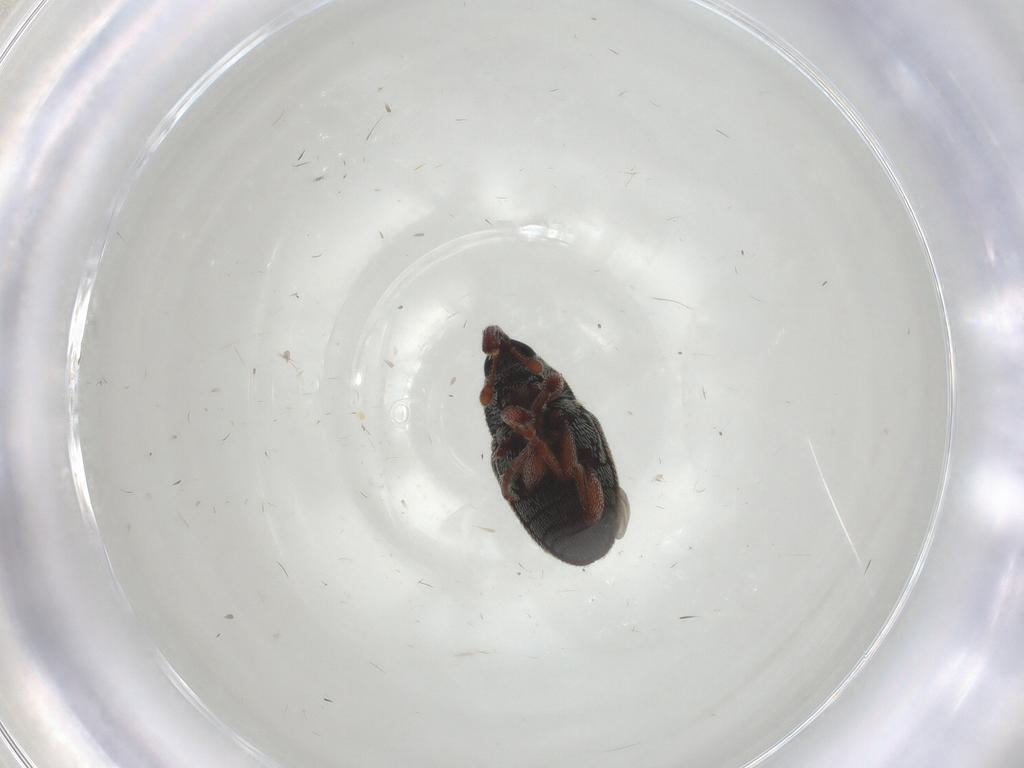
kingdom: Animalia
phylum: Arthropoda
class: Insecta
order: Coleoptera
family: Curculionidae
